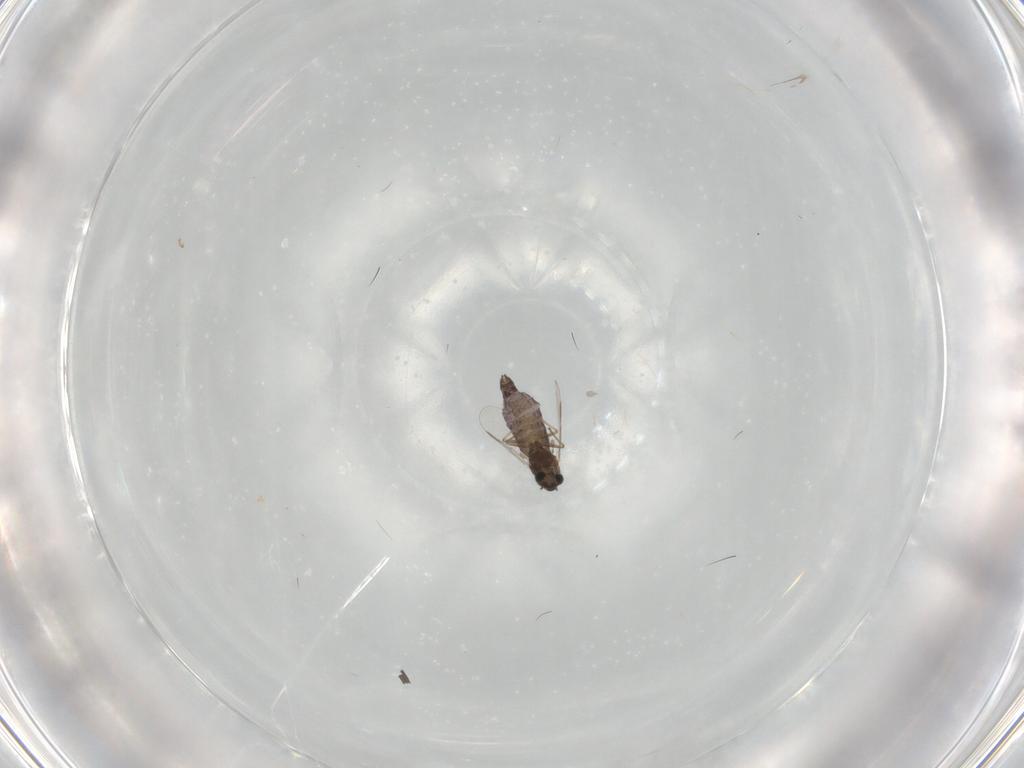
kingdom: Animalia
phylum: Arthropoda
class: Insecta
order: Diptera
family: Chironomidae
